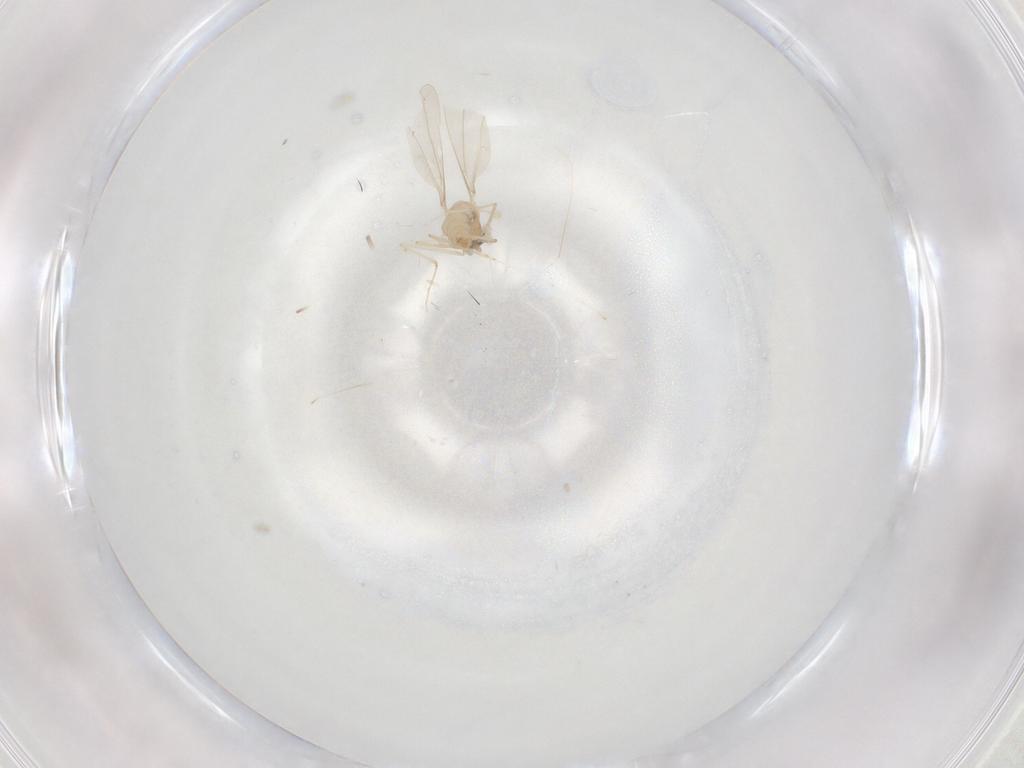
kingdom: Animalia
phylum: Arthropoda
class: Insecta
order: Diptera
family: Cecidomyiidae
